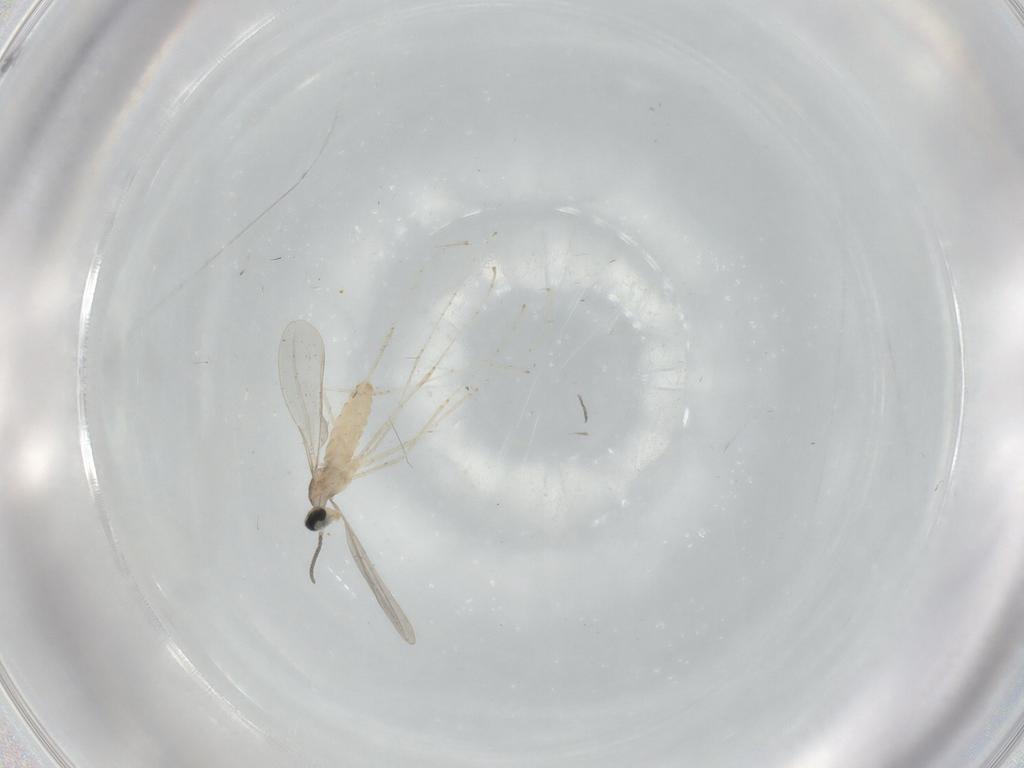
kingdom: Animalia
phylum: Arthropoda
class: Insecta
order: Diptera
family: Cecidomyiidae
